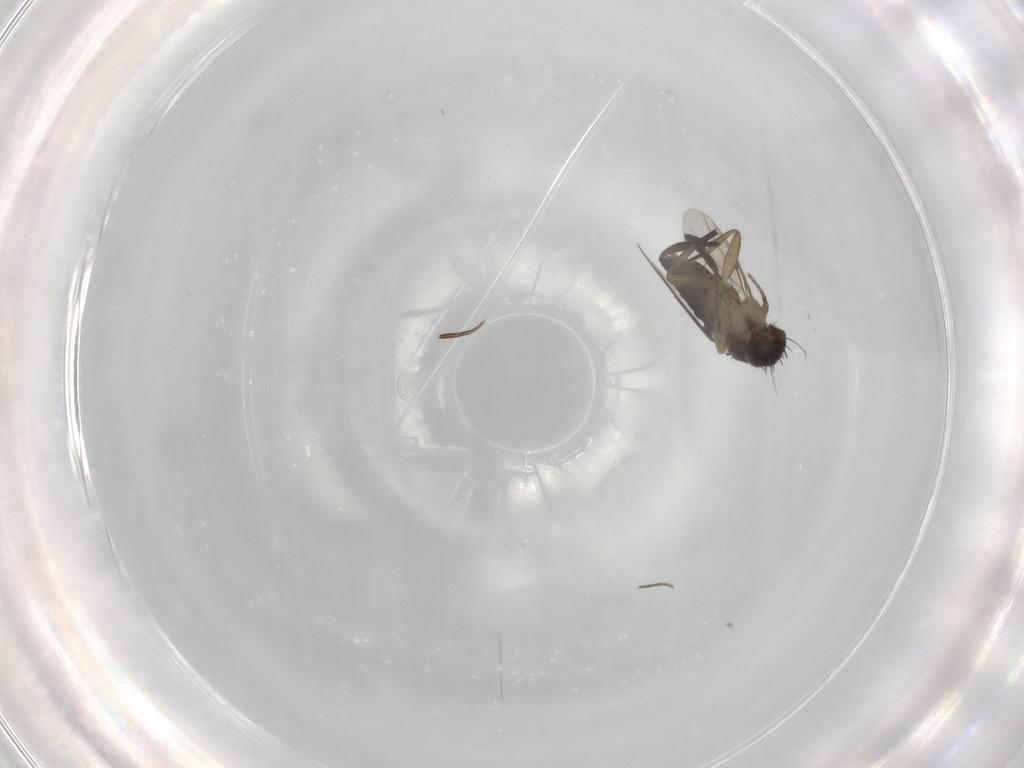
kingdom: Animalia
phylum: Arthropoda
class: Insecta
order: Diptera
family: Phoridae
